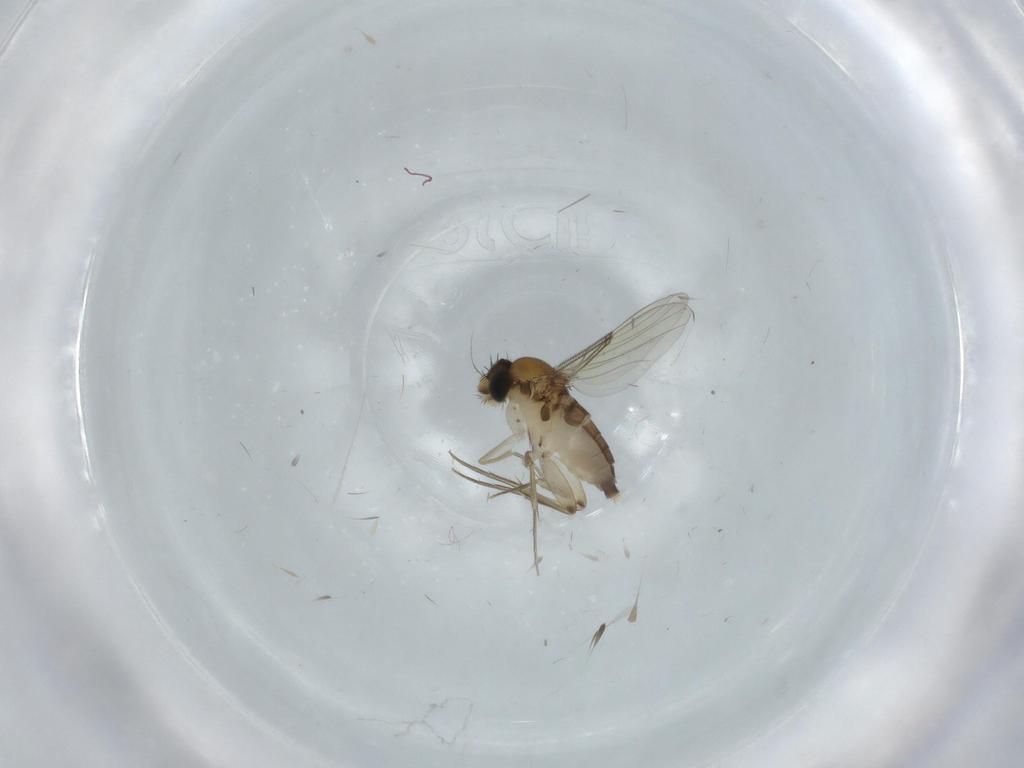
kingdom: Animalia
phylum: Arthropoda
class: Insecta
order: Diptera
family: Phoridae
